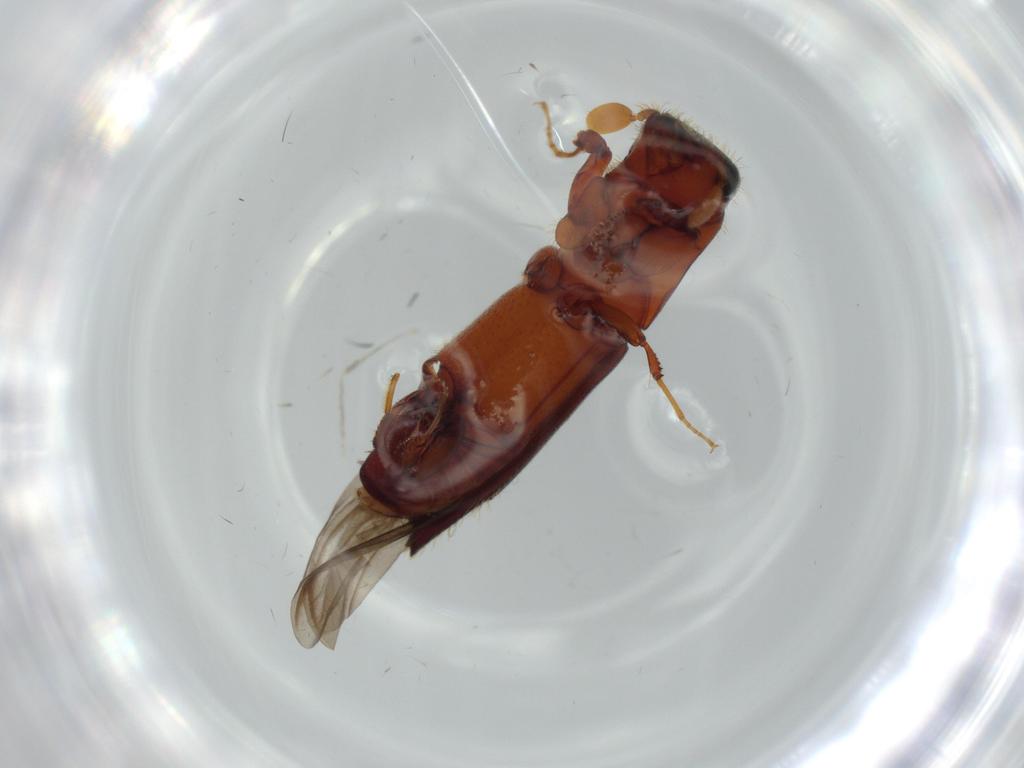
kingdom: Animalia
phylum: Arthropoda
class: Insecta
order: Coleoptera
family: Curculionidae
